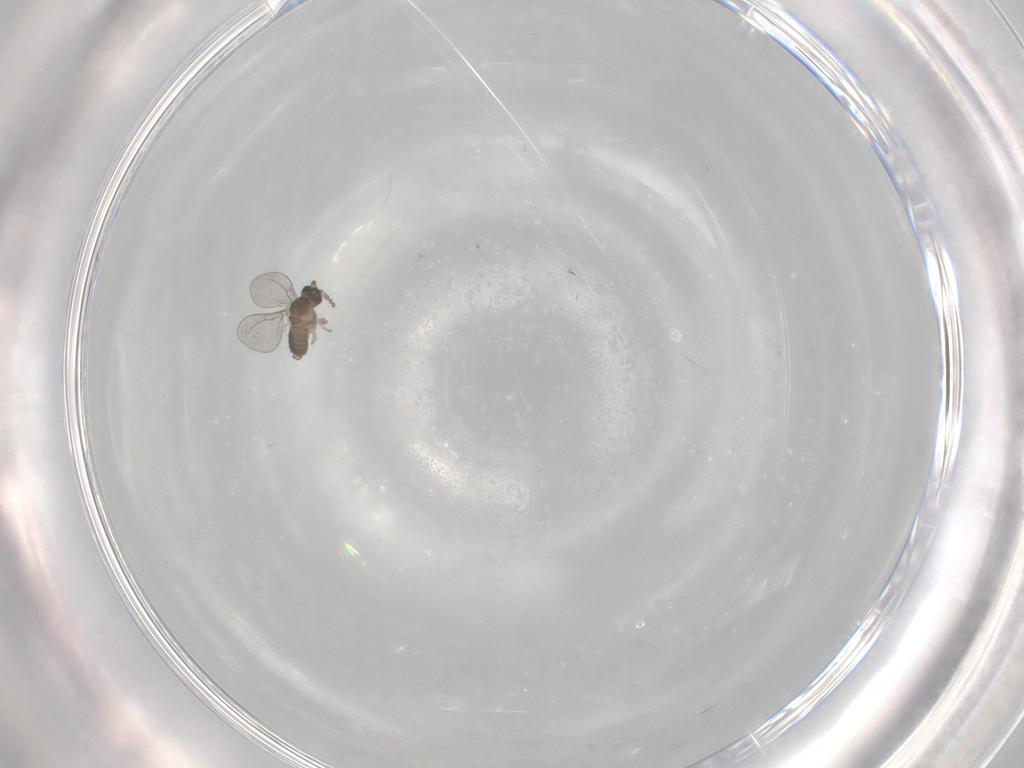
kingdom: Animalia
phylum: Arthropoda
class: Insecta
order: Diptera
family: Cecidomyiidae
